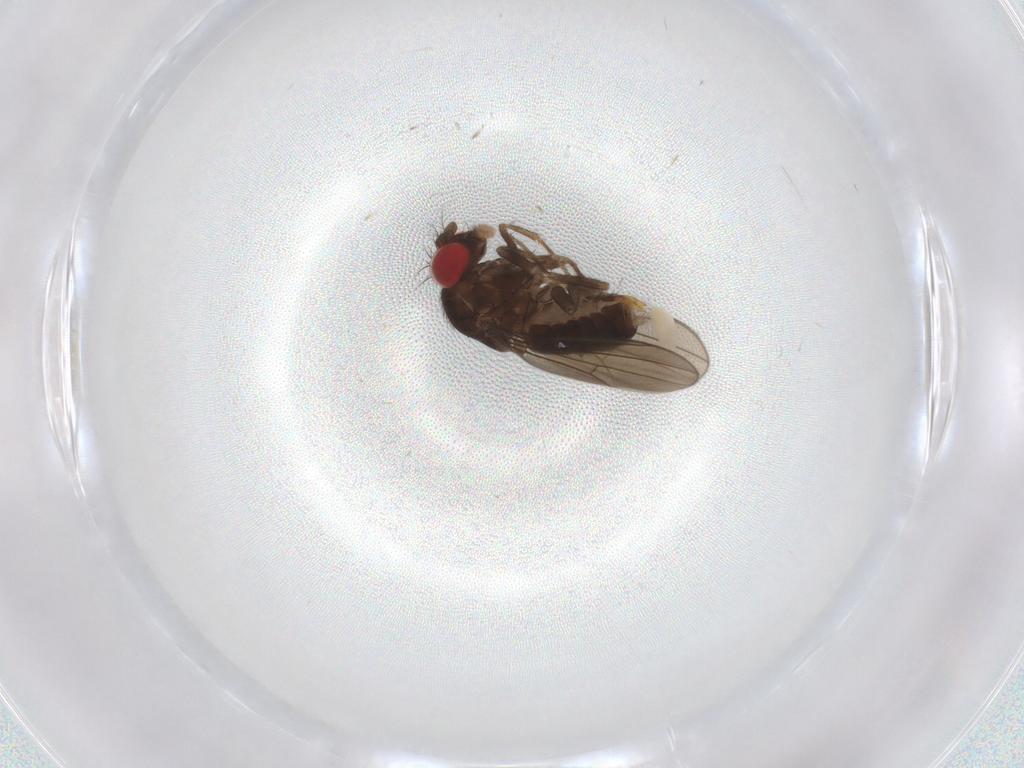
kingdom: Animalia
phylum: Arthropoda
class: Insecta
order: Diptera
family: Drosophilidae
